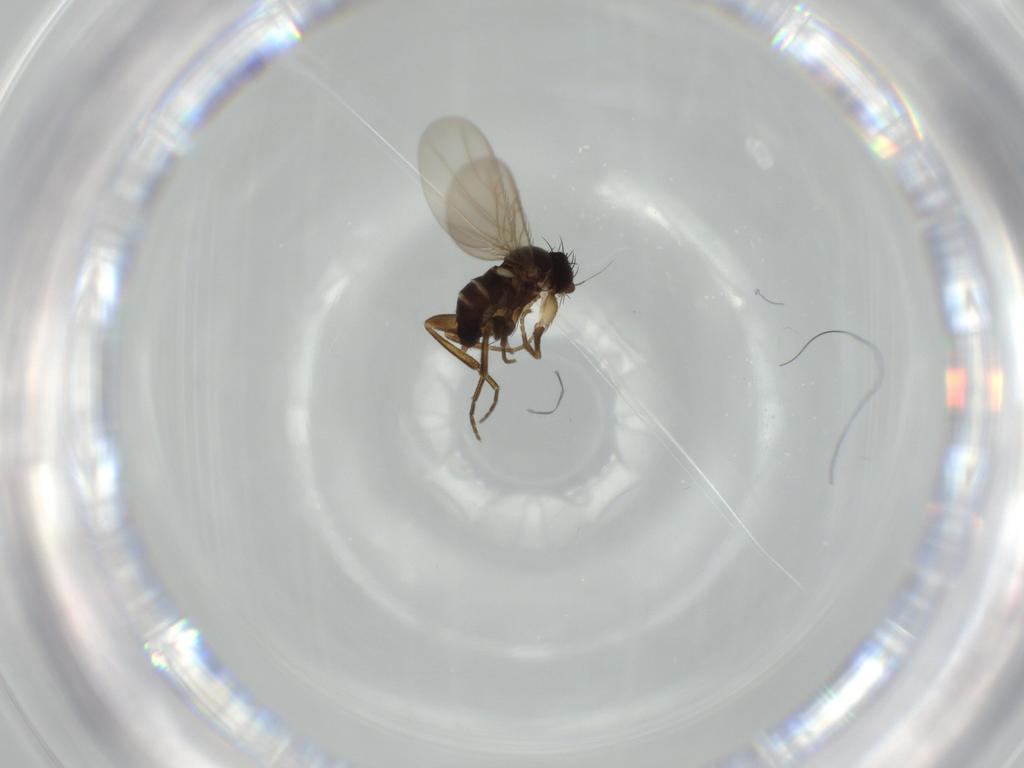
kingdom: Animalia
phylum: Arthropoda
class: Insecta
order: Diptera
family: Phoridae
